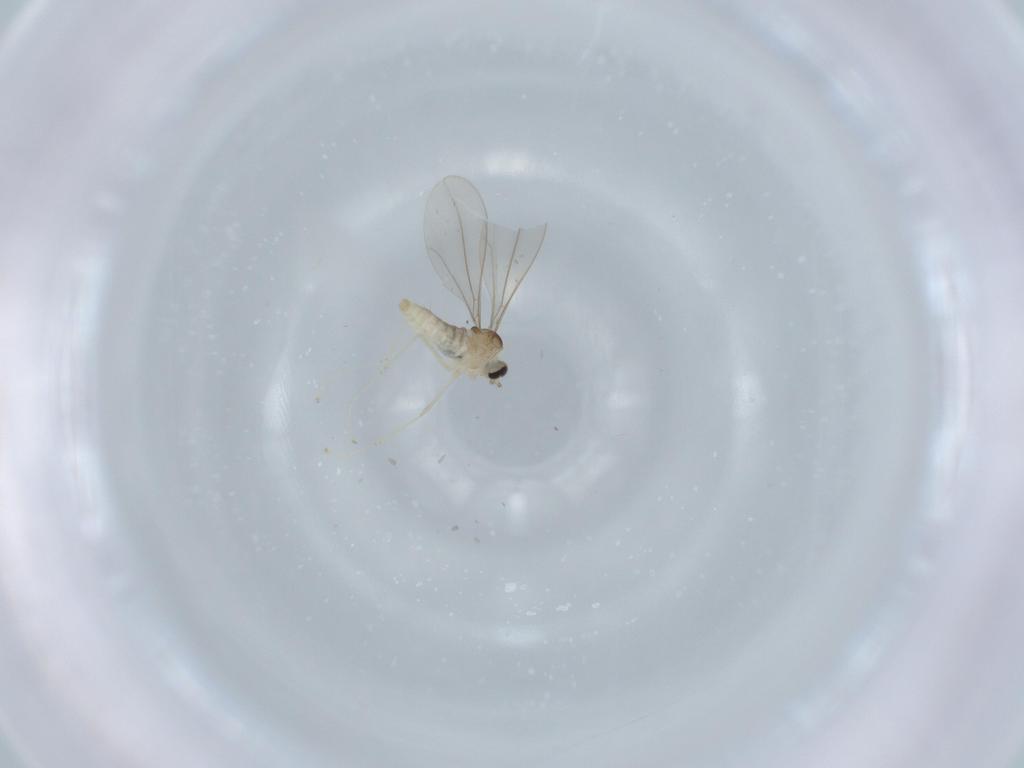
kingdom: Animalia
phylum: Arthropoda
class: Insecta
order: Diptera
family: Cecidomyiidae
